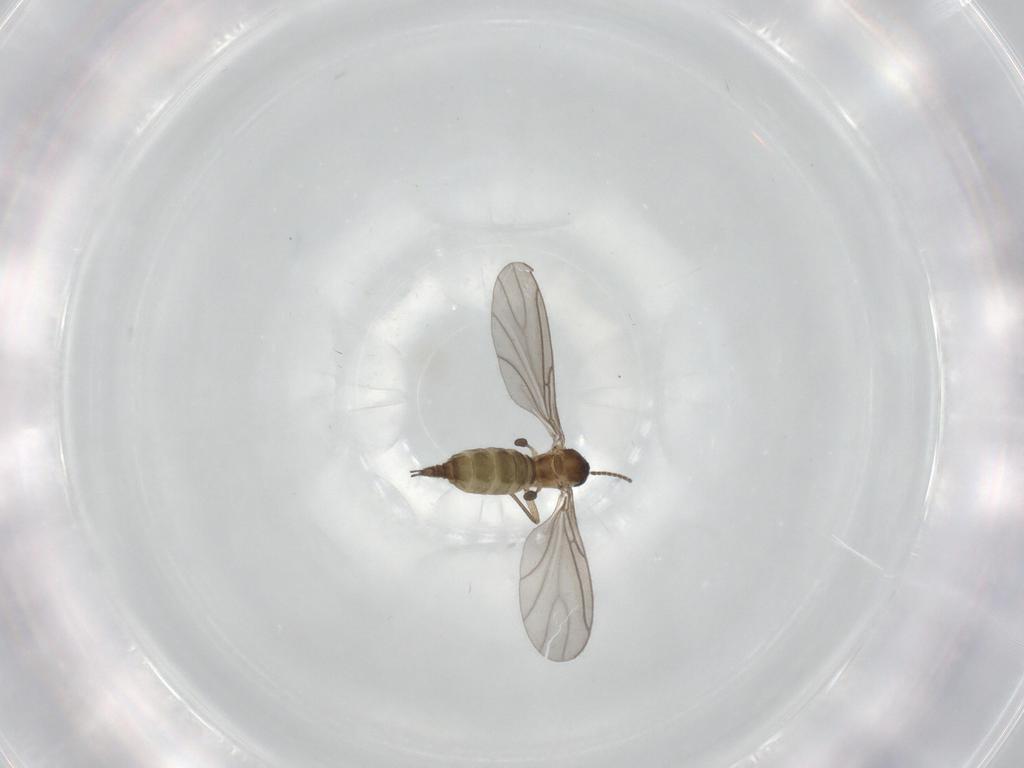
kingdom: Animalia
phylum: Arthropoda
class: Insecta
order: Diptera
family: Sciaridae
